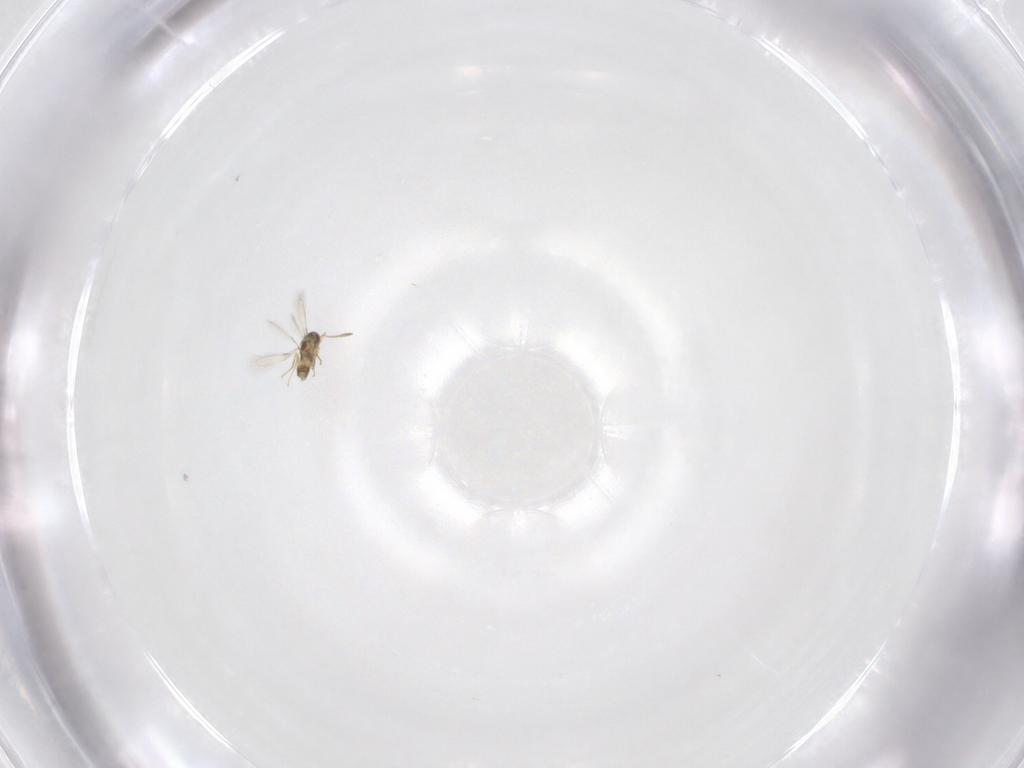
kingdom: Animalia
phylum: Arthropoda
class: Insecta
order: Hymenoptera
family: Mymaridae
